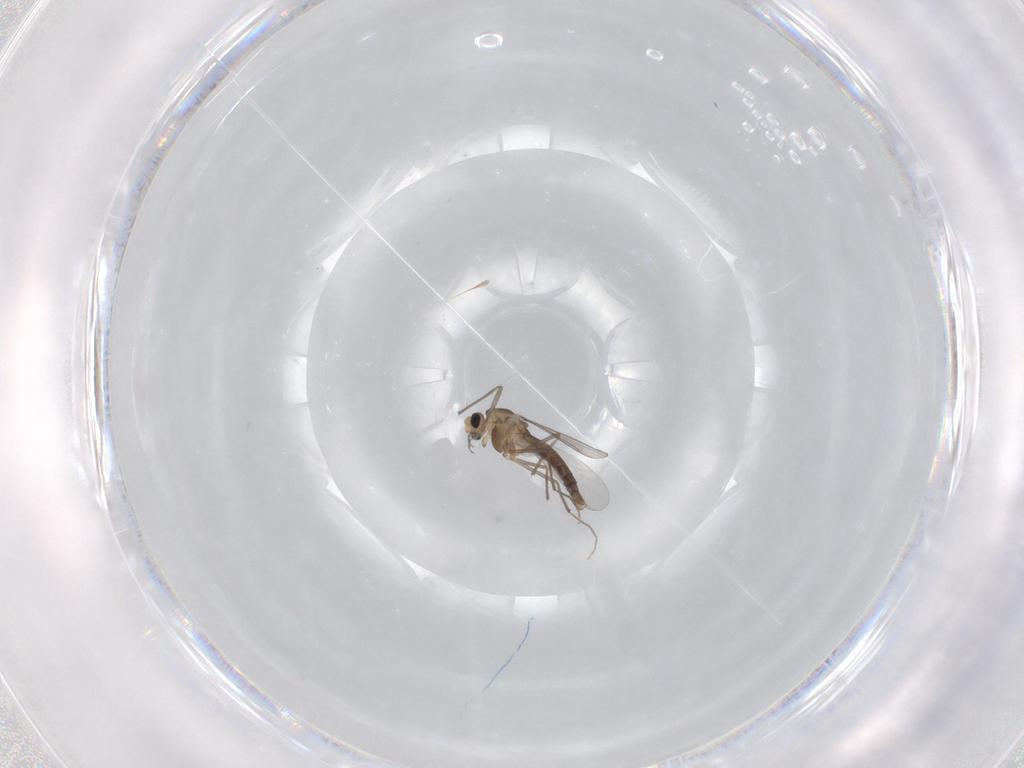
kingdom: Animalia
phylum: Arthropoda
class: Insecta
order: Diptera
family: Chironomidae
